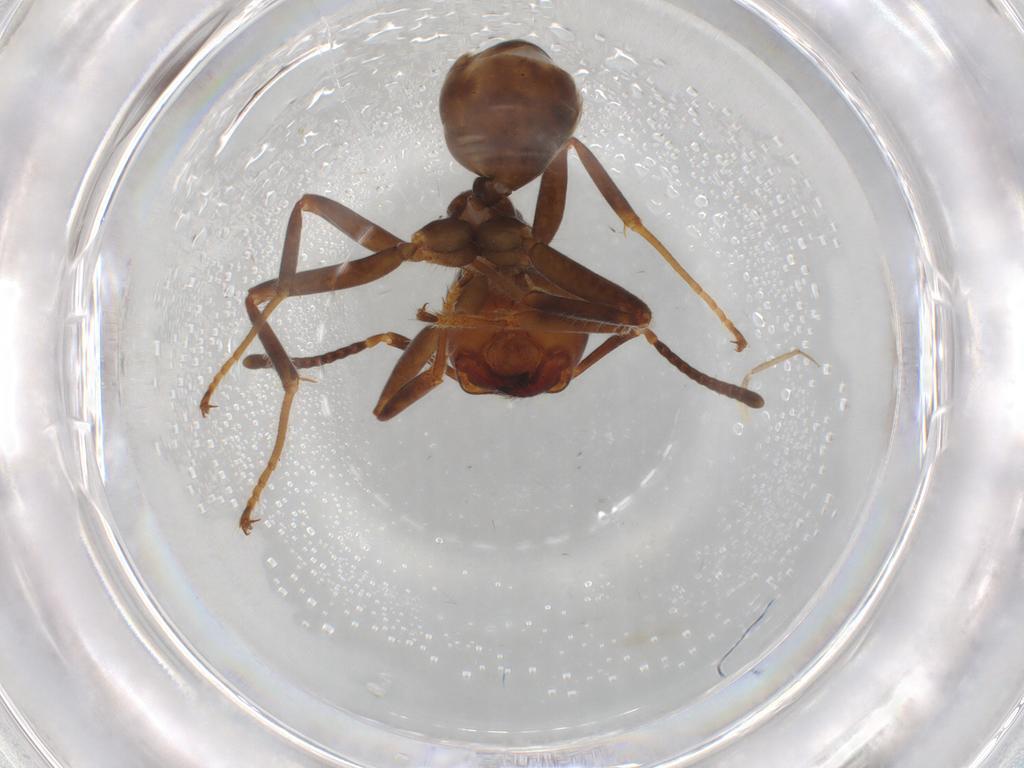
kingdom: Animalia
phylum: Arthropoda
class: Insecta
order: Hymenoptera
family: Formicidae
